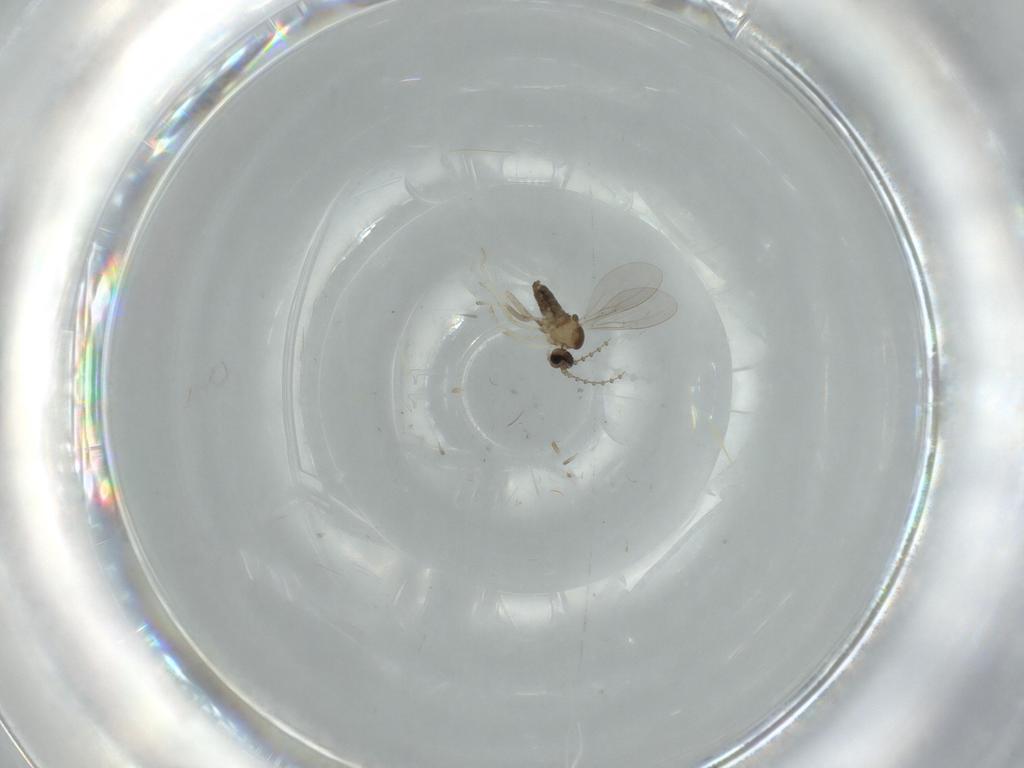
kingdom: Animalia
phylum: Arthropoda
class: Insecta
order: Diptera
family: Cecidomyiidae
